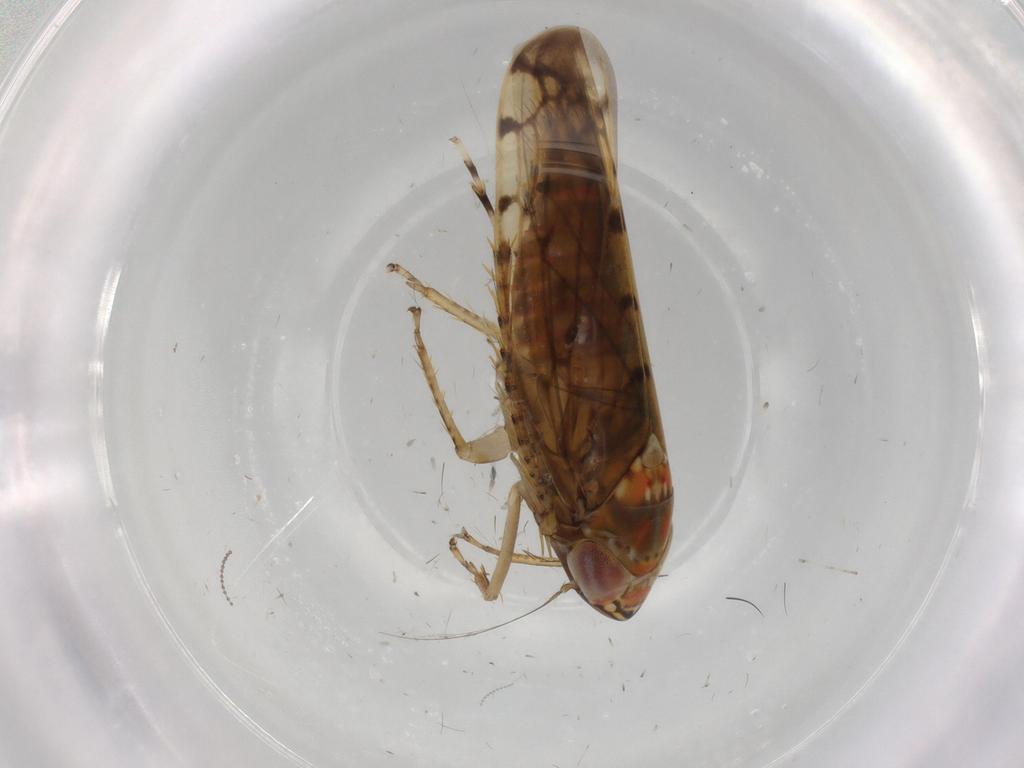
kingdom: Animalia
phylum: Arthropoda
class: Insecta
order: Hemiptera
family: Cicadellidae
